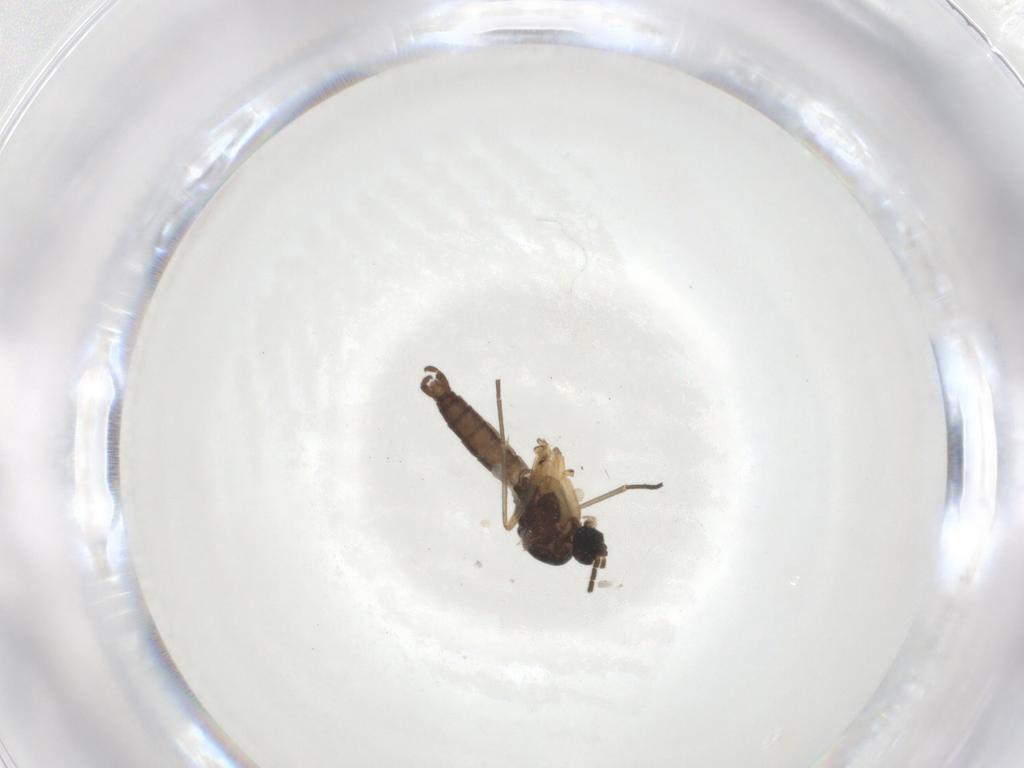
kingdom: Animalia
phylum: Arthropoda
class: Insecta
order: Diptera
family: Sciaridae
